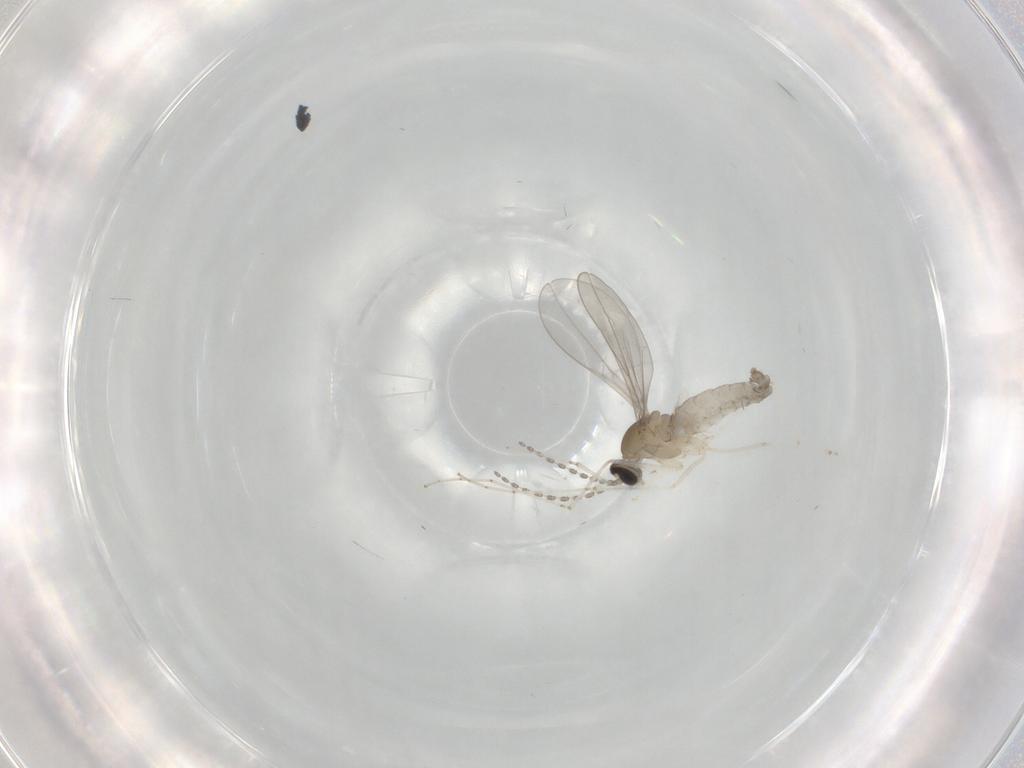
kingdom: Animalia
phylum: Arthropoda
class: Insecta
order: Diptera
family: Cecidomyiidae
